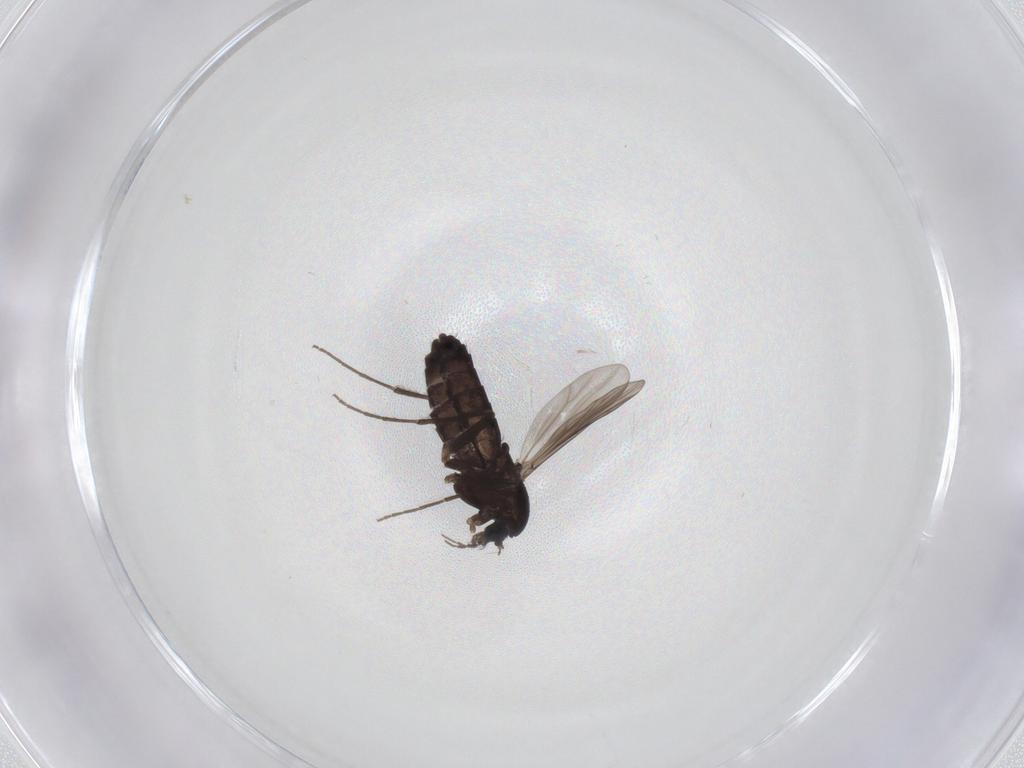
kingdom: Animalia
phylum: Arthropoda
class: Insecta
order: Diptera
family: Chironomidae
